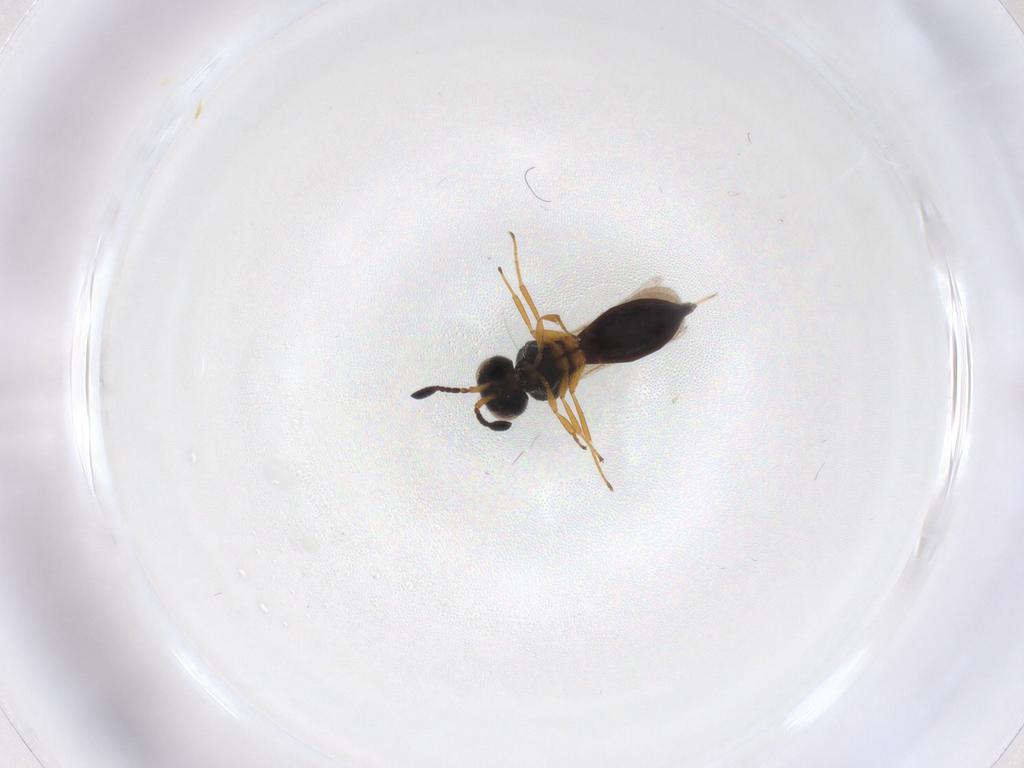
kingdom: Animalia
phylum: Arthropoda
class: Insecta
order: Hymenoptera
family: Scelionidae
